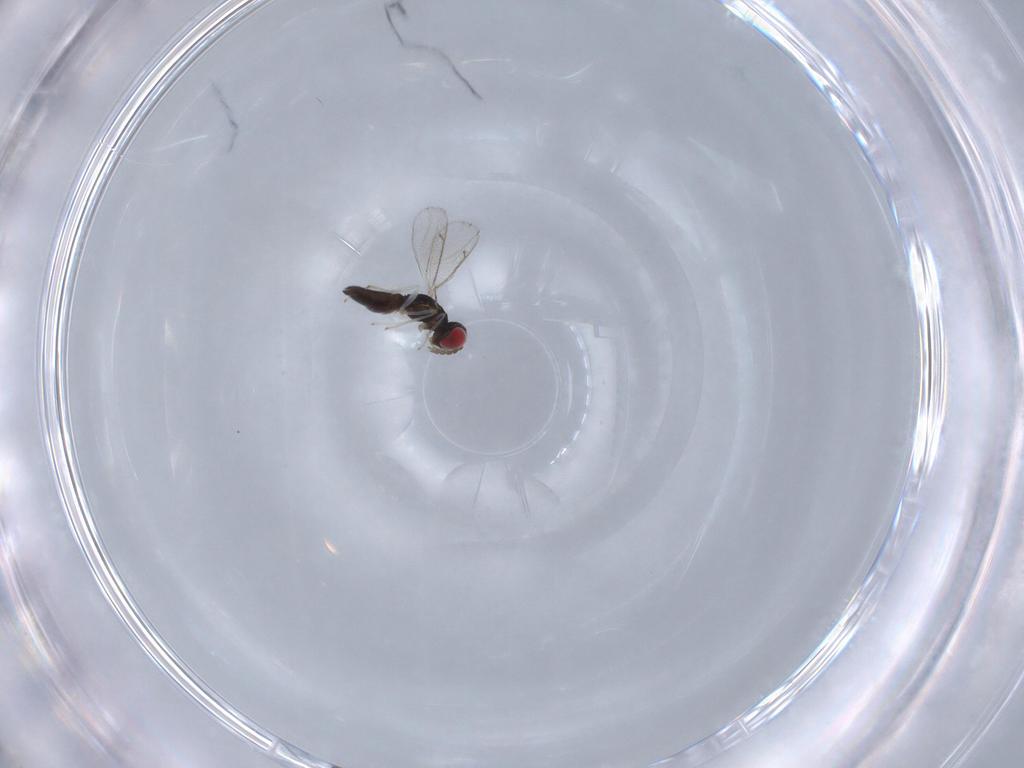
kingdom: Animalia
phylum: Arthropoda
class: Insecta
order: Hymenoptera
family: Eulophidae
